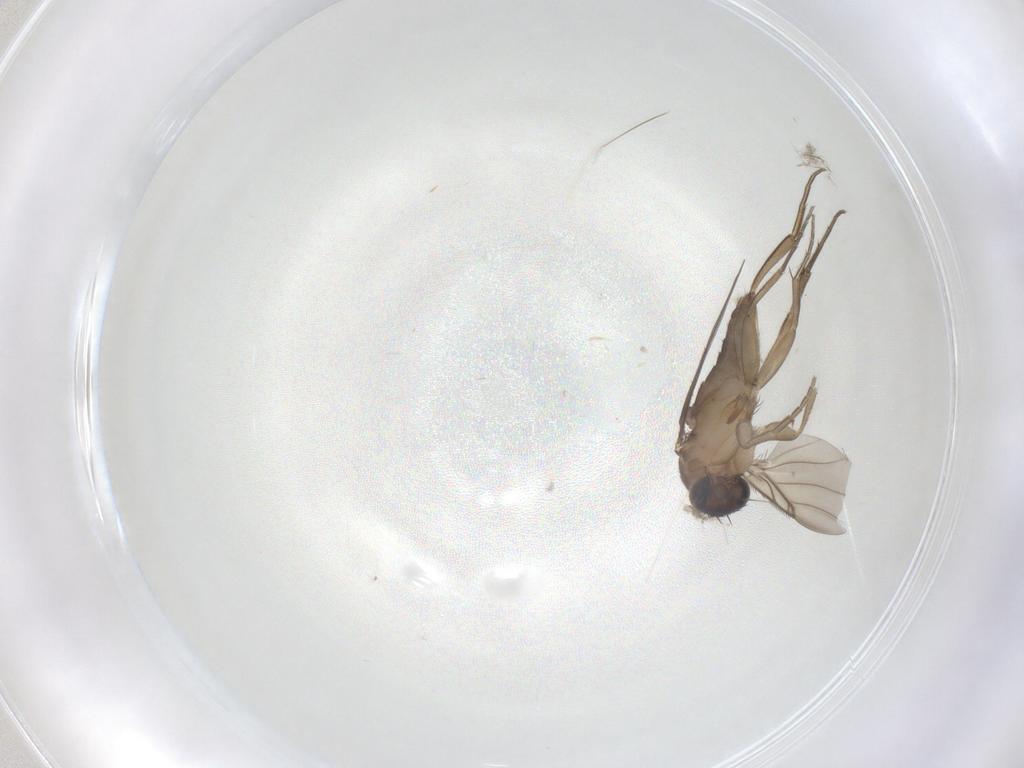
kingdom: Animalia
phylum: Arthropoda
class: Insecta
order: Diptera
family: Phoridae
